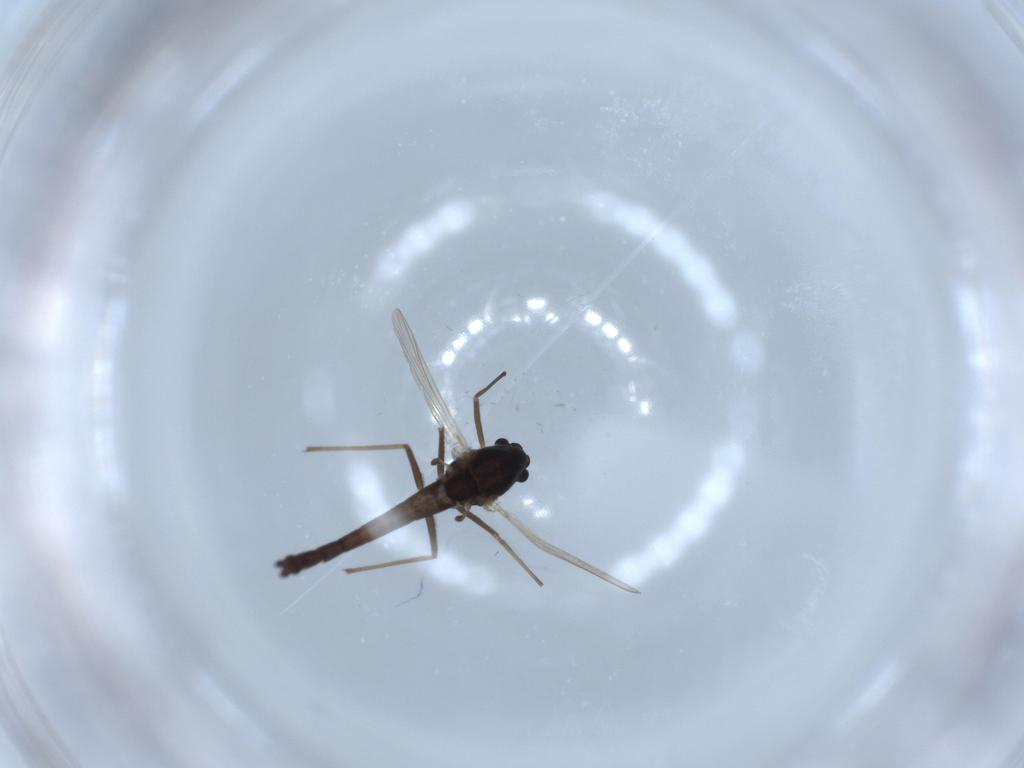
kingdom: Animalia
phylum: Arthropoda
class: Insecta
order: Diptera
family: Chironomidae
